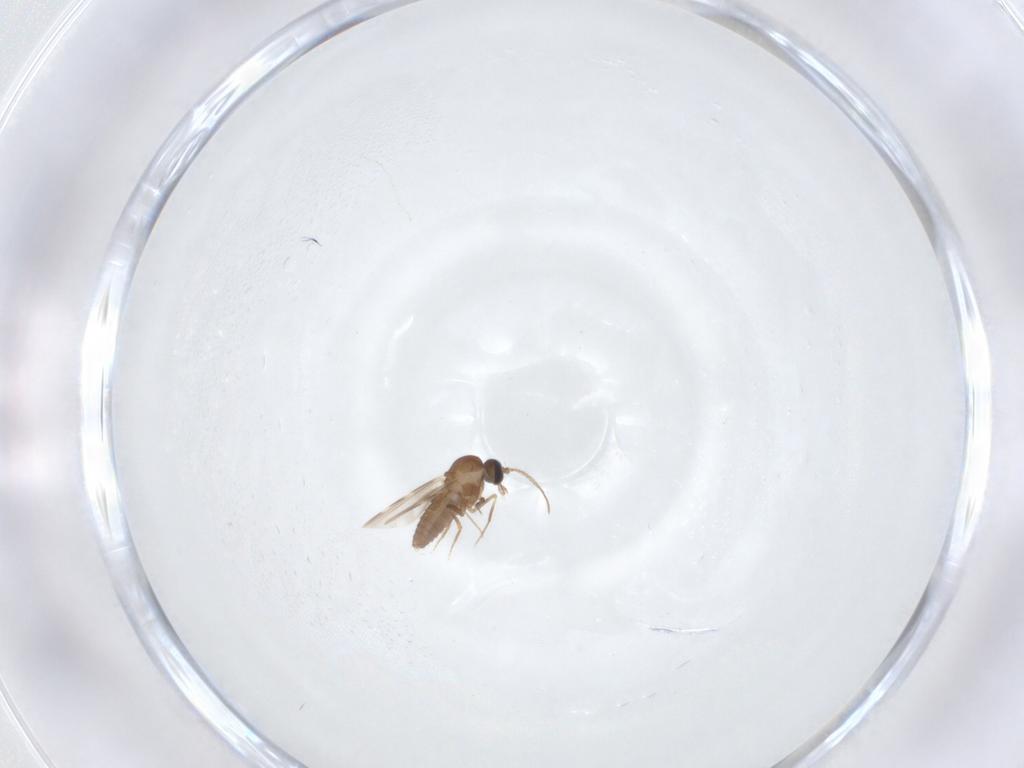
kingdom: Animalia
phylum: Arthropoda
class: Insecta
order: Diptera
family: Ceratopogonidae
